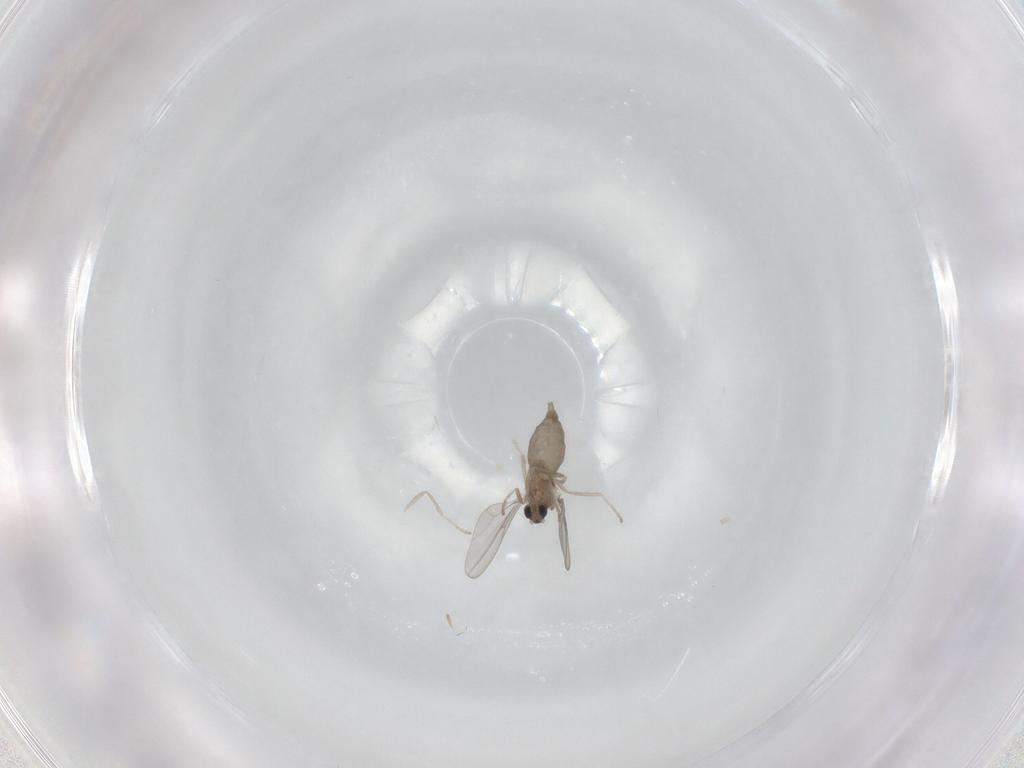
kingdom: Animalia
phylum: Arthropoda
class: Insecta
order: Diptera
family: Cecidomyiidae
